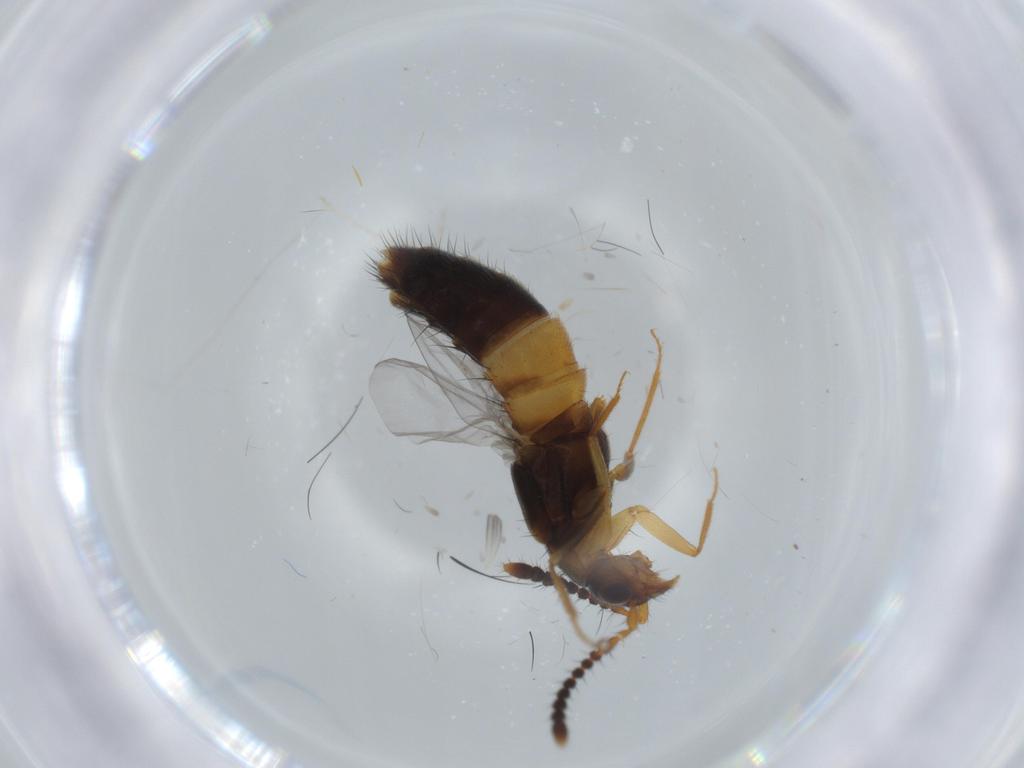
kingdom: Animalia
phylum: Arthropoda
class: Insecta
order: Coleoptera
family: Staphylinidae
